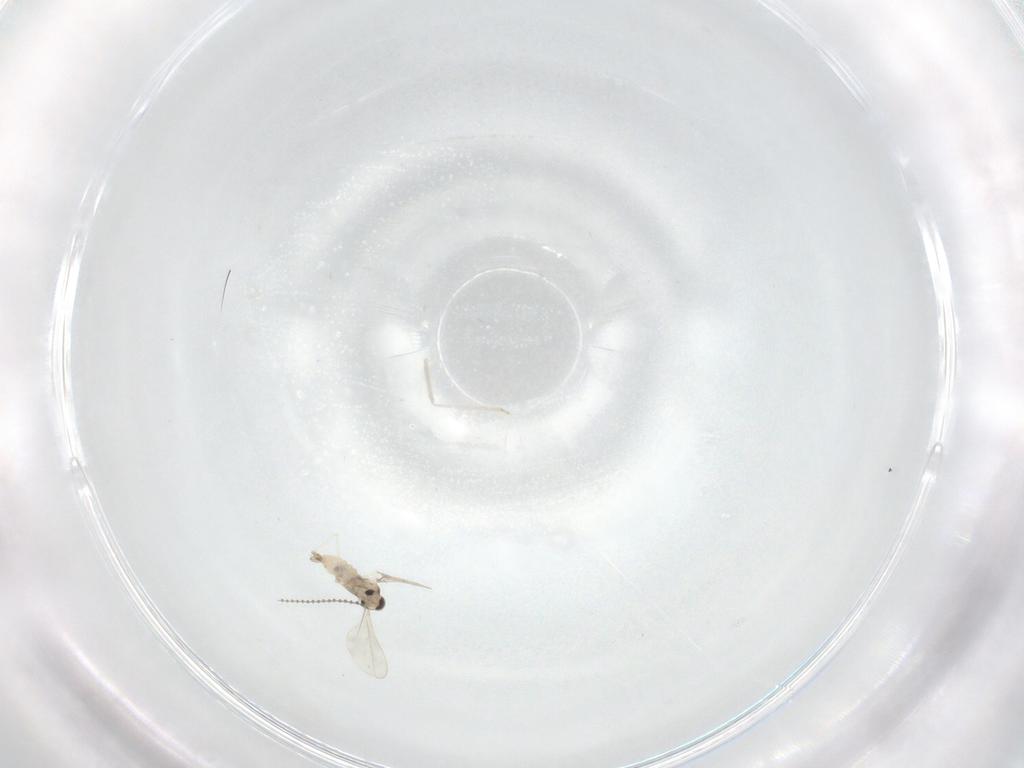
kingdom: Animalia
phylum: Arthropoda
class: Insecta
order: Diptera
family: Cecidomyiidae
